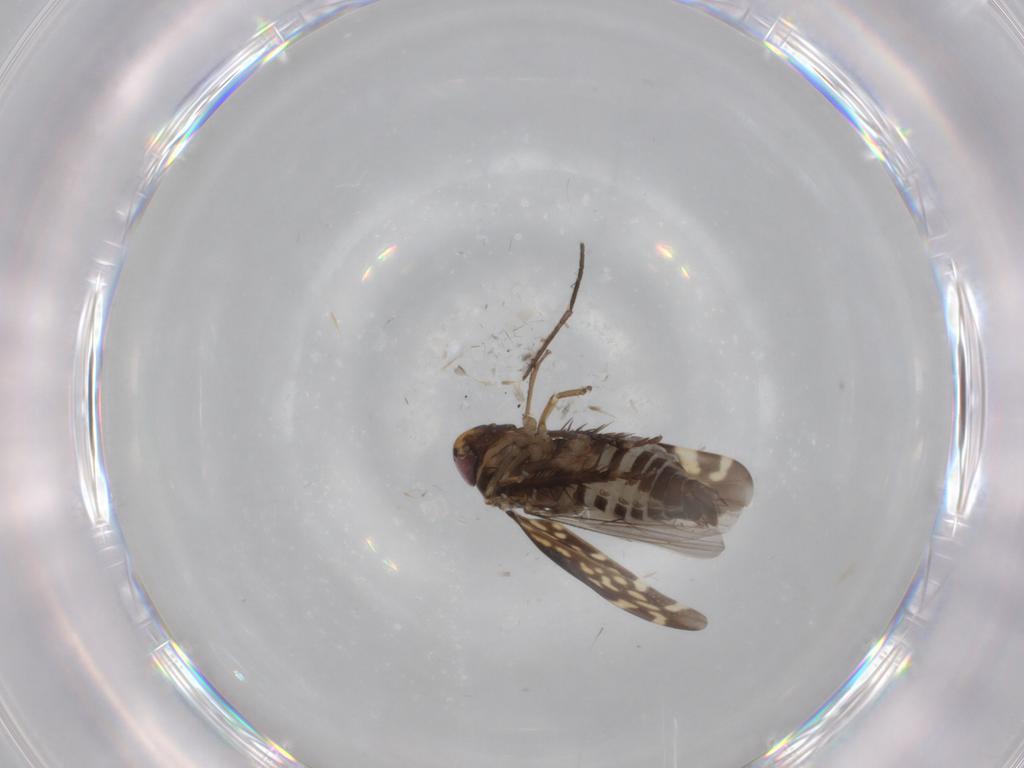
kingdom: Animalia
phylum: Arthropoda
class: Insecta
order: Hemiptera
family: Cicadellidae
